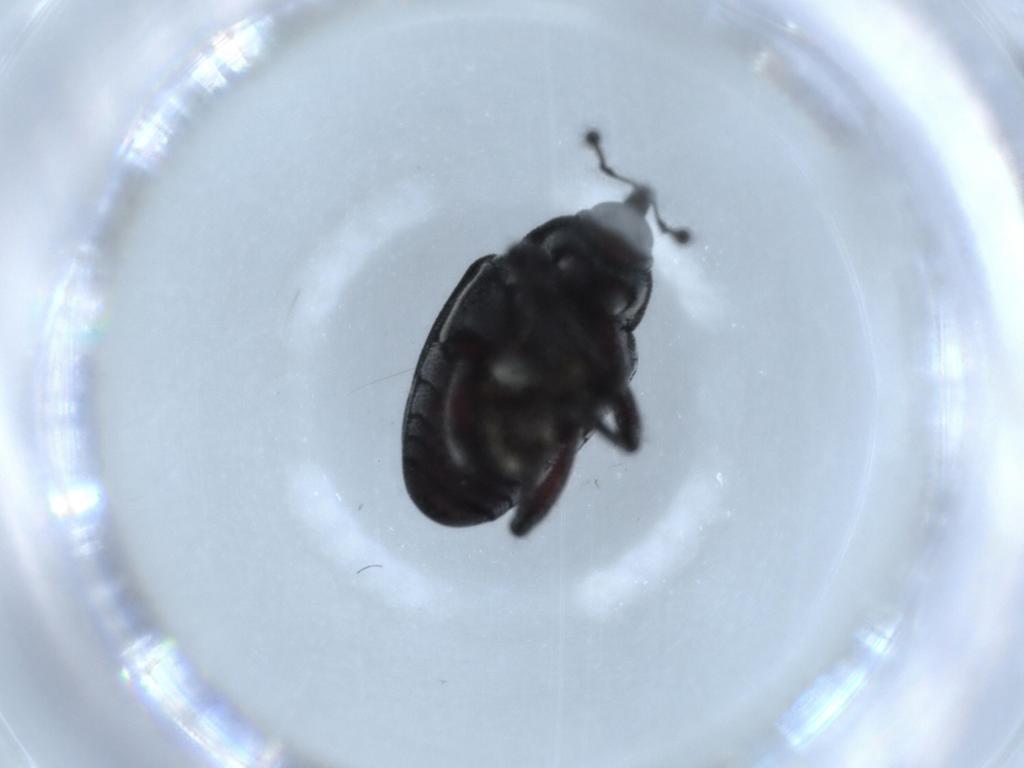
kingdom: Animalia
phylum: Arthropoda
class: Insecta
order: Coleoptera
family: Curculionidae
